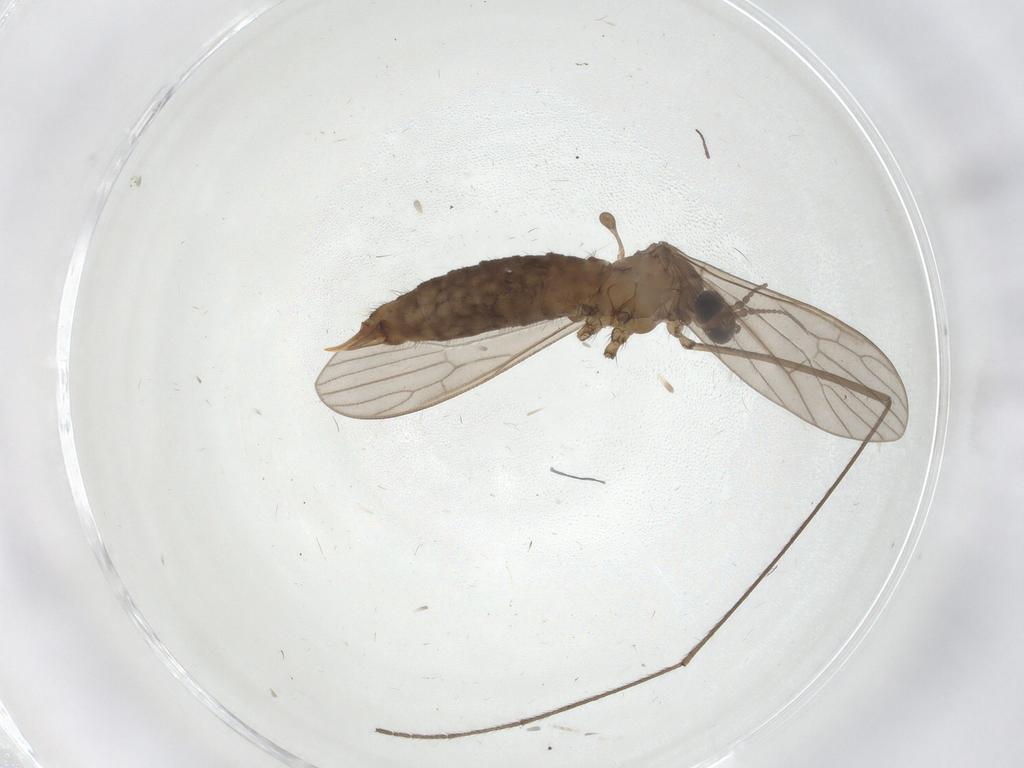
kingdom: Animalia
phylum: Arthropoda
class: Insecta
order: Diptera
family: Limoniidae
